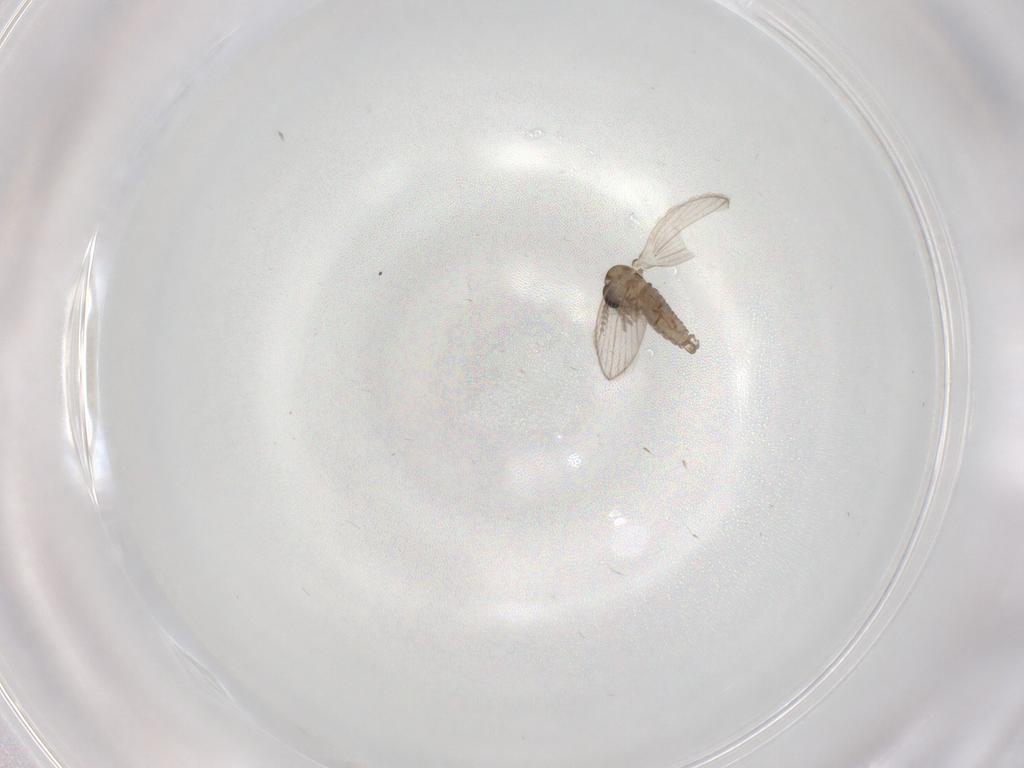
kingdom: Animalia
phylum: Arthropoda
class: Insecta
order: Diptera
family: Psychodidae
